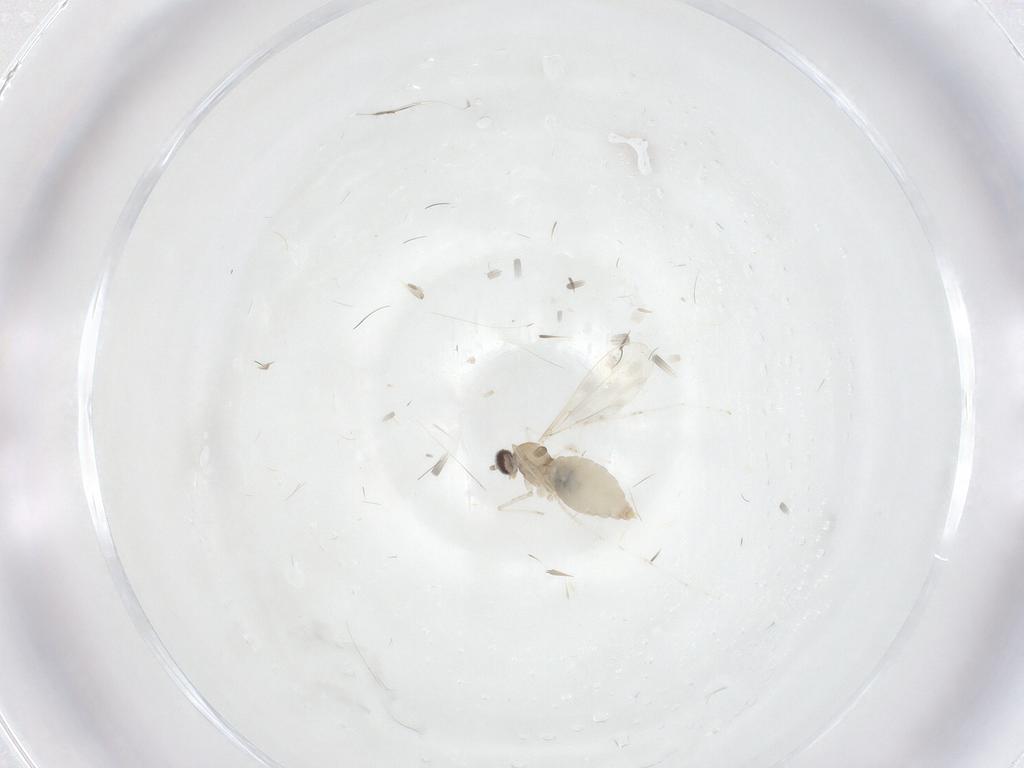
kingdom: Animalia
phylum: Arthropoda
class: Insecta
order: Diptera
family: Cecidomyiidae
